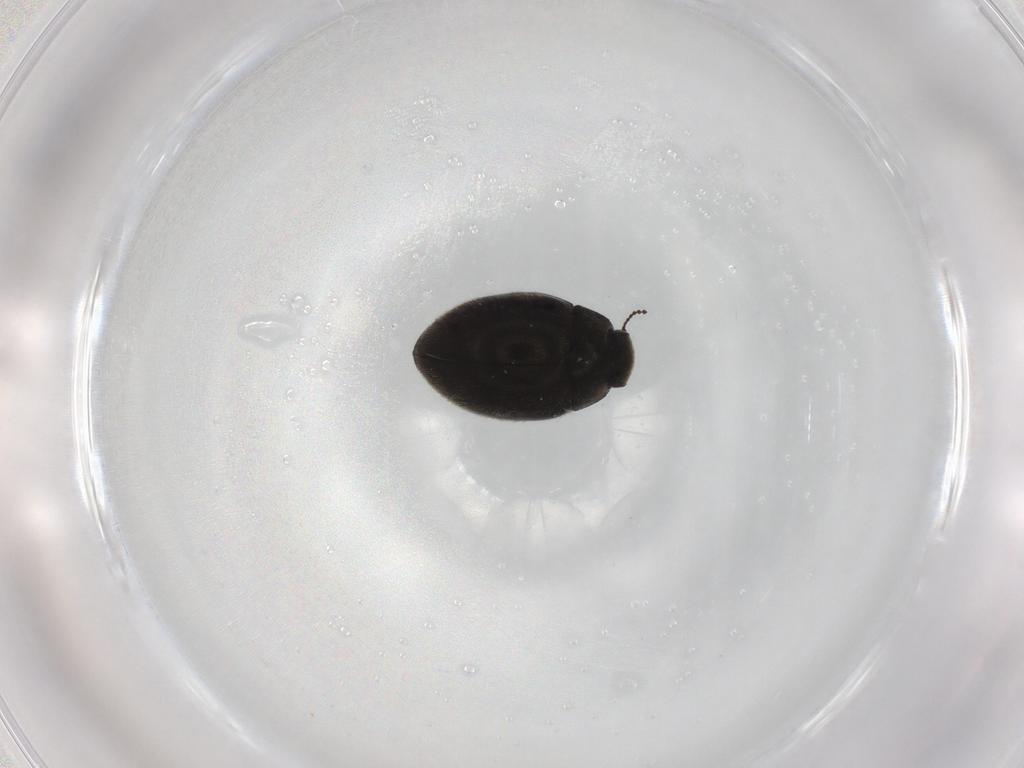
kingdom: Animalia
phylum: Arthropoda
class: Insecta
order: Coleoptera
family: Limnichidae
